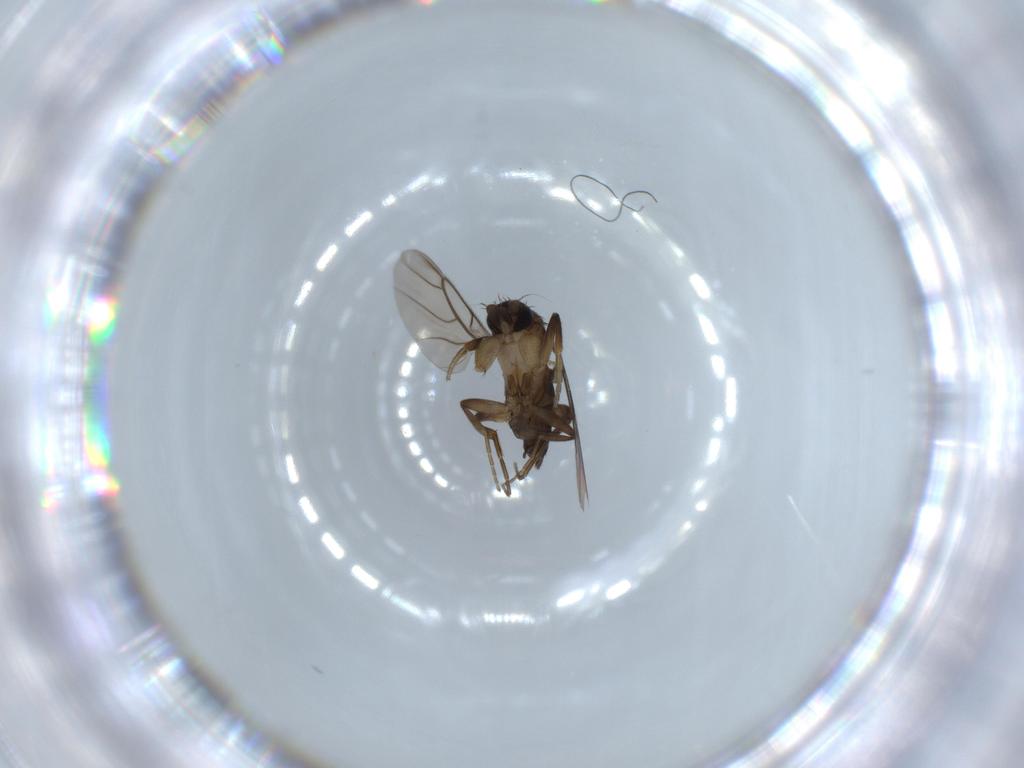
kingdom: Animalia
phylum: Arthropoda
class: Insecta
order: Diptera
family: Phoridae
